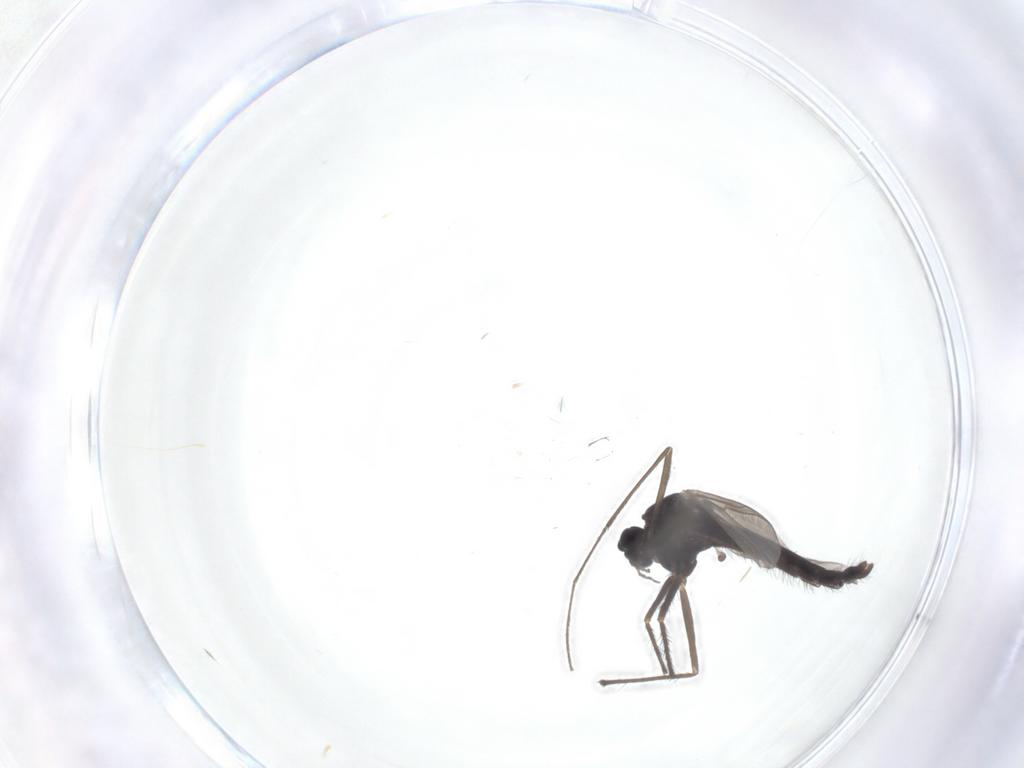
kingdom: Animalia
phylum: Arthropoda
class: Insecta
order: Diptera
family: Chironomidae
